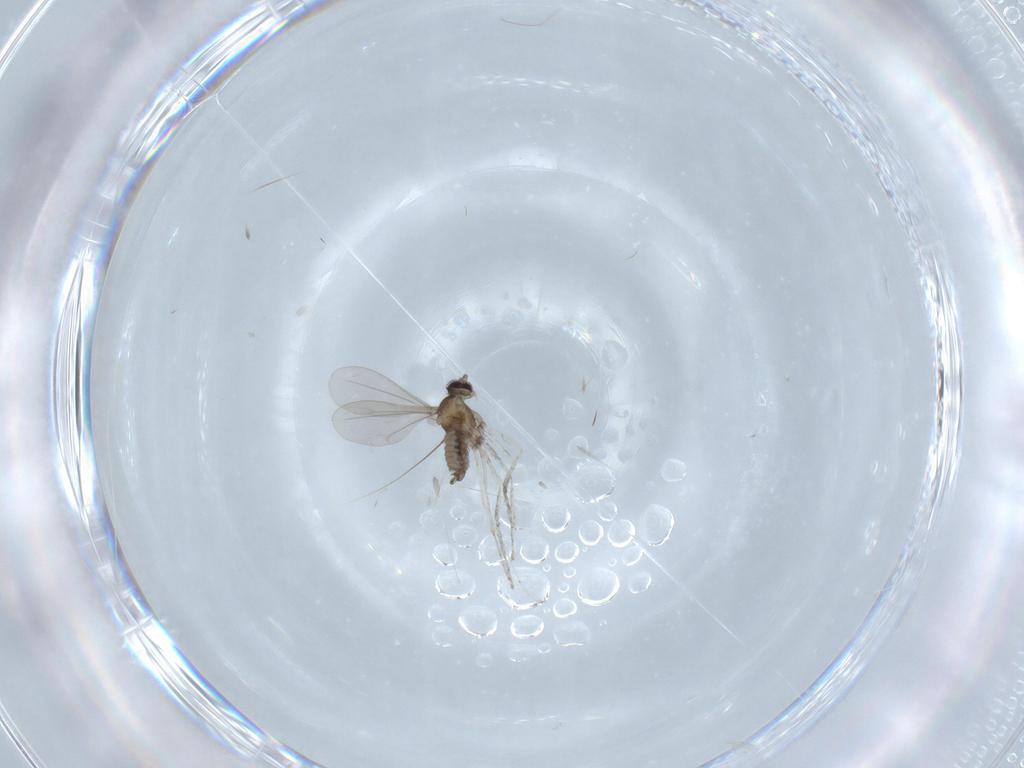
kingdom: Animalia
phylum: Arthropoda
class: Insecta
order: Diptera
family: Cecidomyiidae
